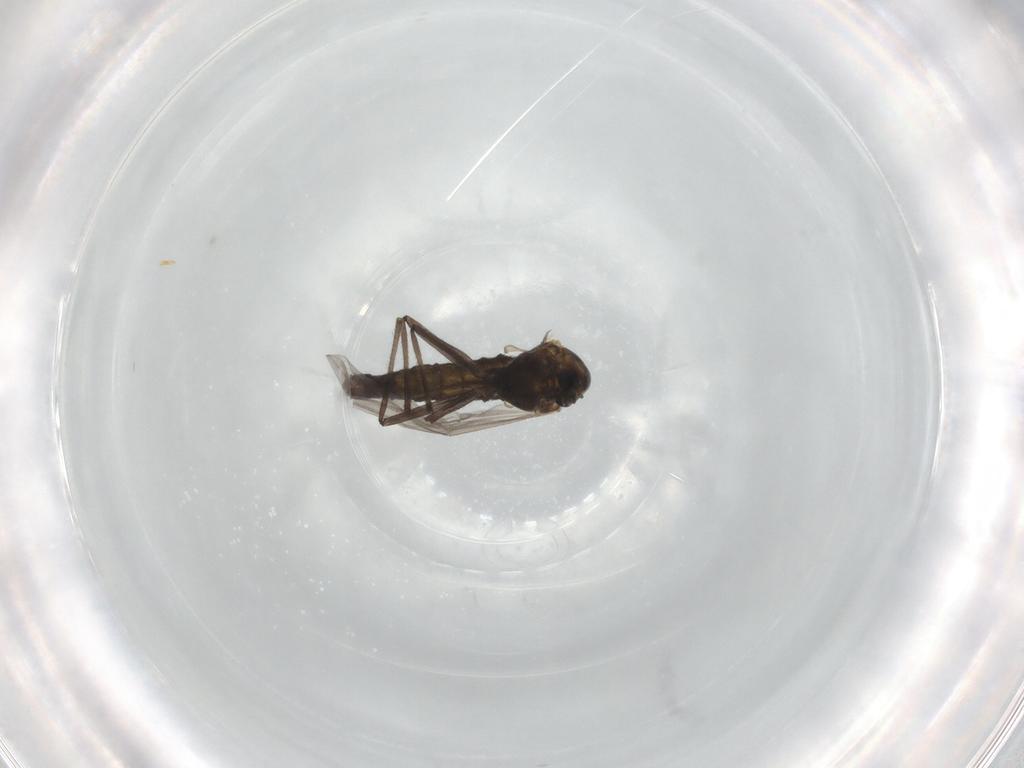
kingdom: Animalia
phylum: Arthropoda
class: Insecta
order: Diptera
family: Chironomidae
